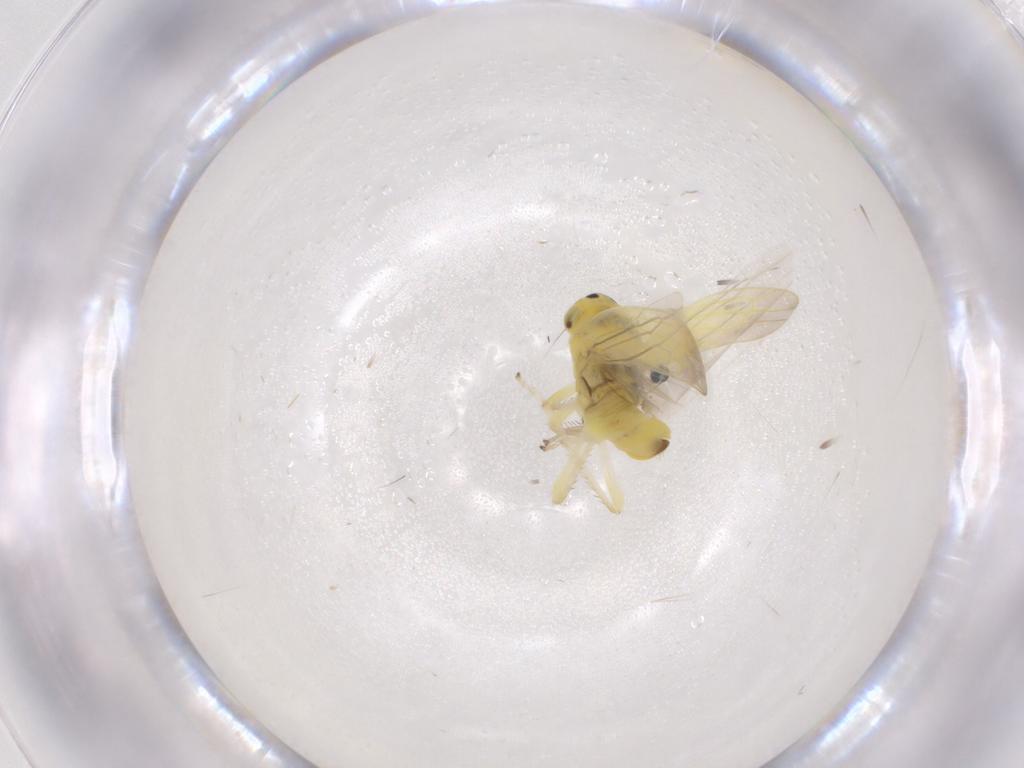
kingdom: Animalia
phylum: Arthropoda
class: Insecta
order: Hemiptera
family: Cicadellidae
